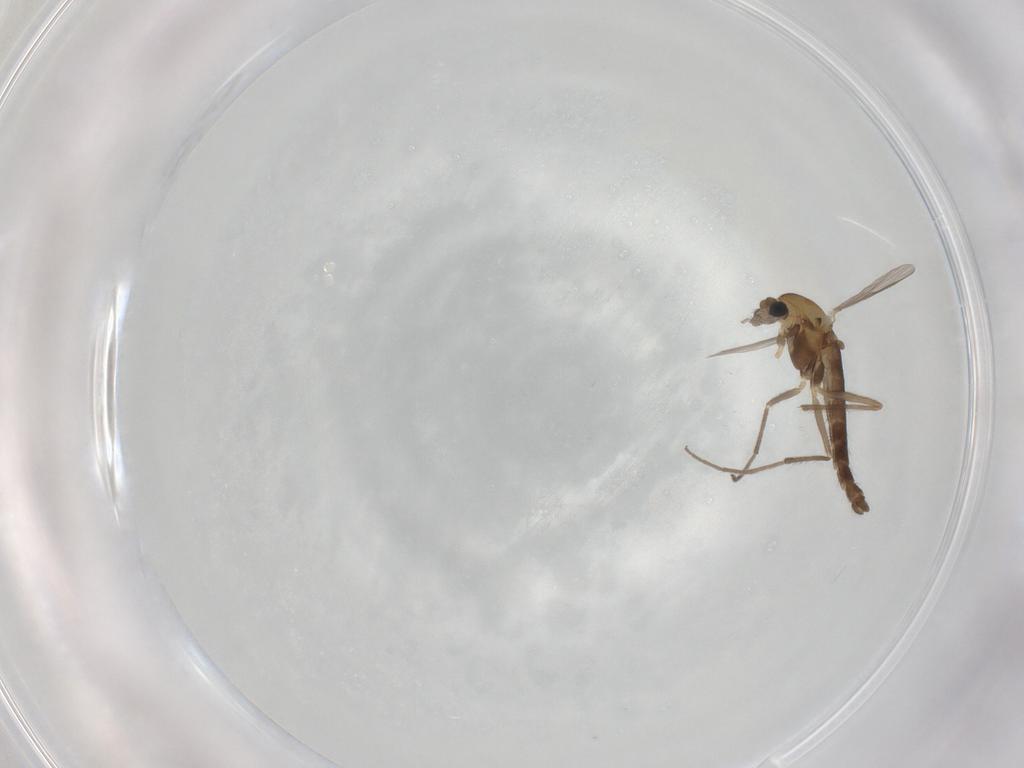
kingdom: Animalia
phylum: Arthropoda
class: Insecta
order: Diptera
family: Chironomidae
